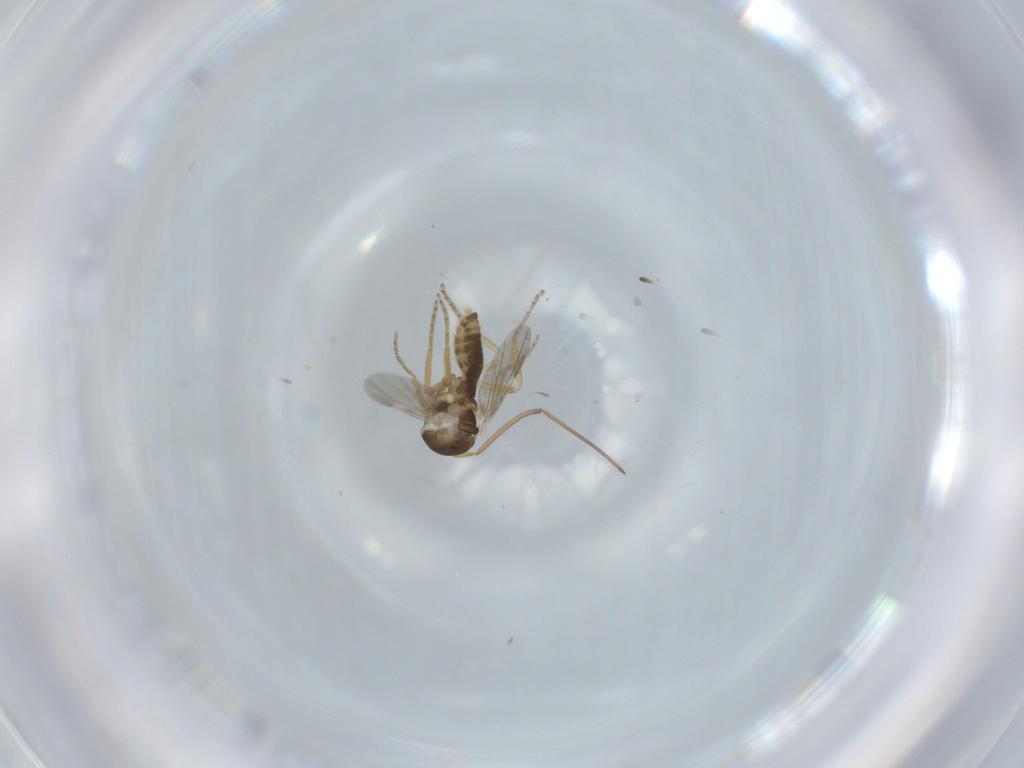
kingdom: Animalia
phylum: Arthropoda
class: Insecta
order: Diptera
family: Ceratopogonidae
